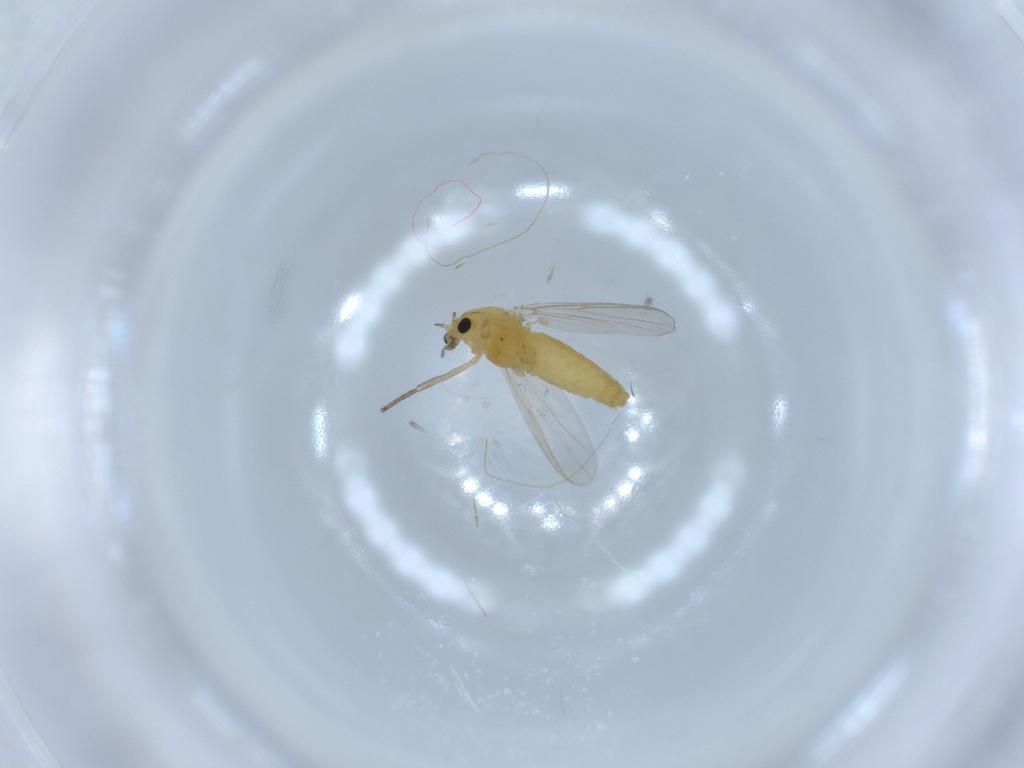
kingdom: Animalia
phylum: Arthropoda
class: Insecta
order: Diptera
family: Chironomidae
